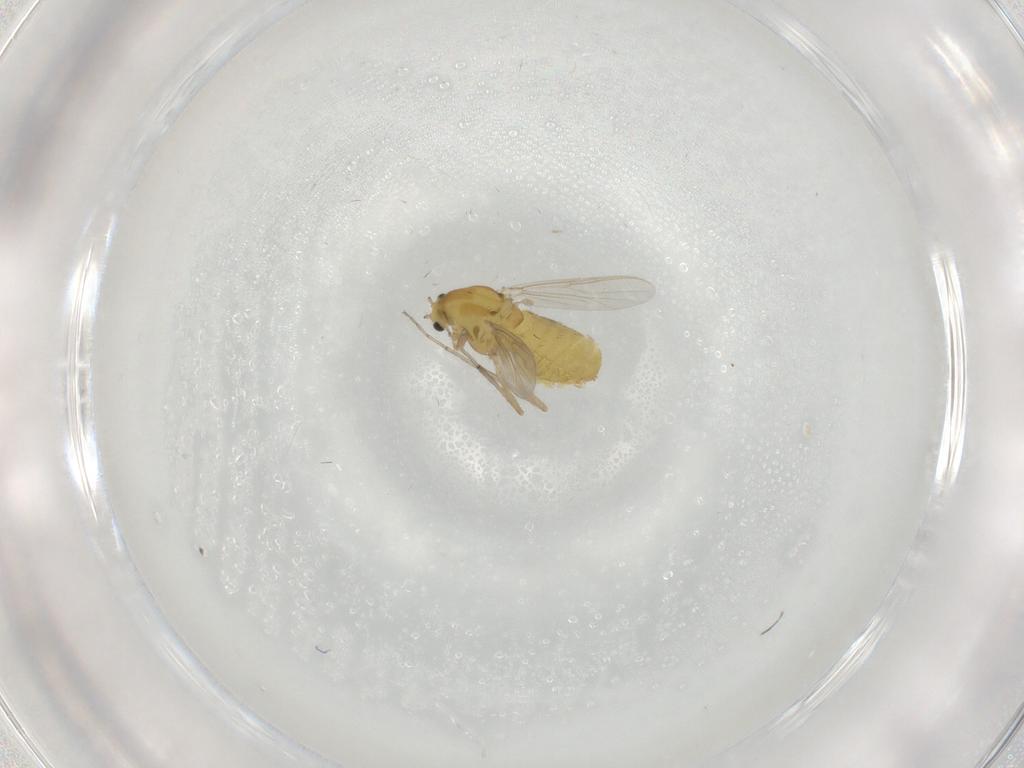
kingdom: Animalia
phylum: Arthropoda
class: Insecta
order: Diptera
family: Chironomidae
